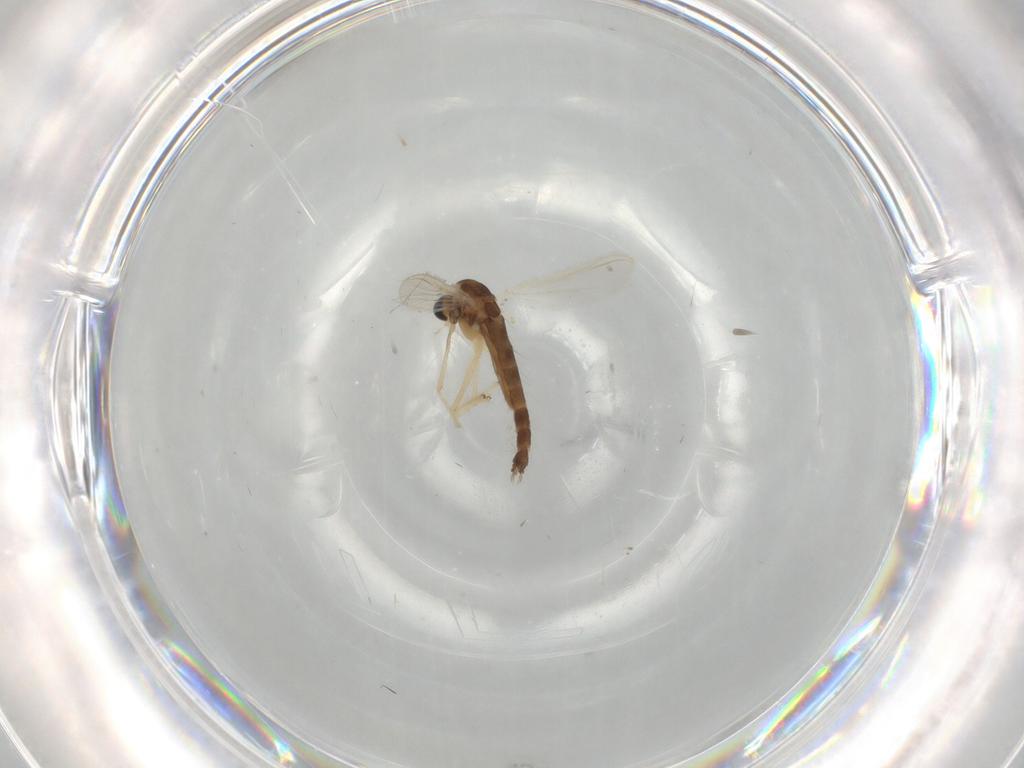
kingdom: Animalia
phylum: Arthropoda
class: Insecta
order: Diptera
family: Chironomidae
